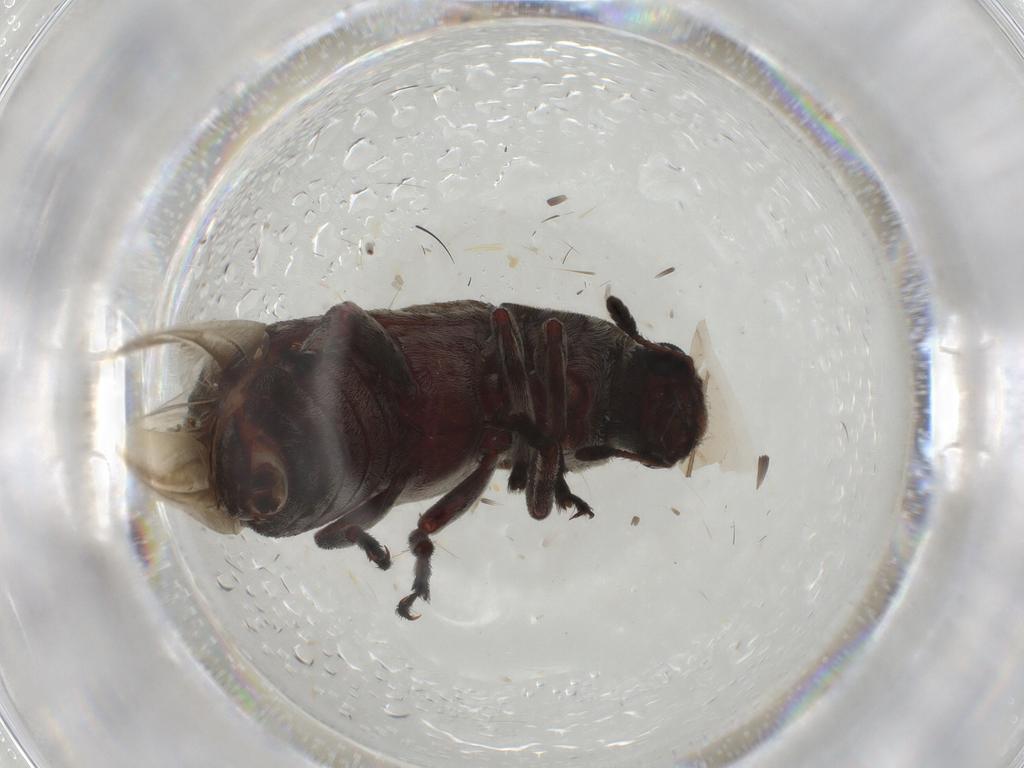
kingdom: Animalia
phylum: Arthropoda
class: Insecta
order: Coleoptera
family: Anthribidae
